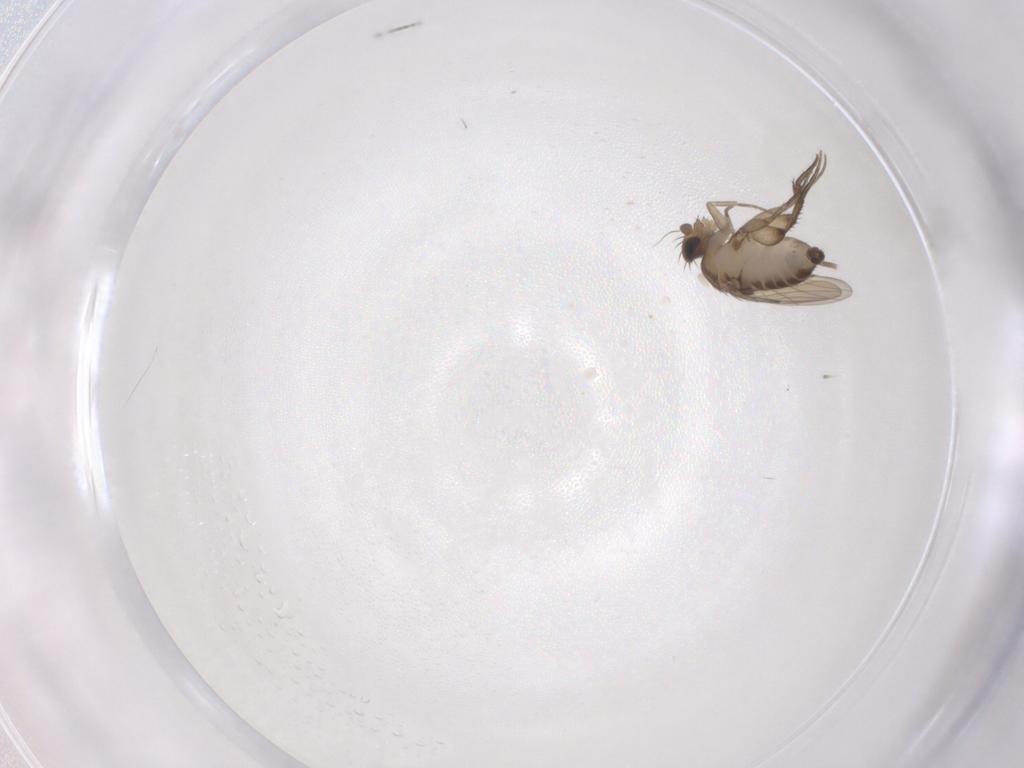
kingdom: Animalia
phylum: Arthropoda
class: Insecta
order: Diptera
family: Phoridae
